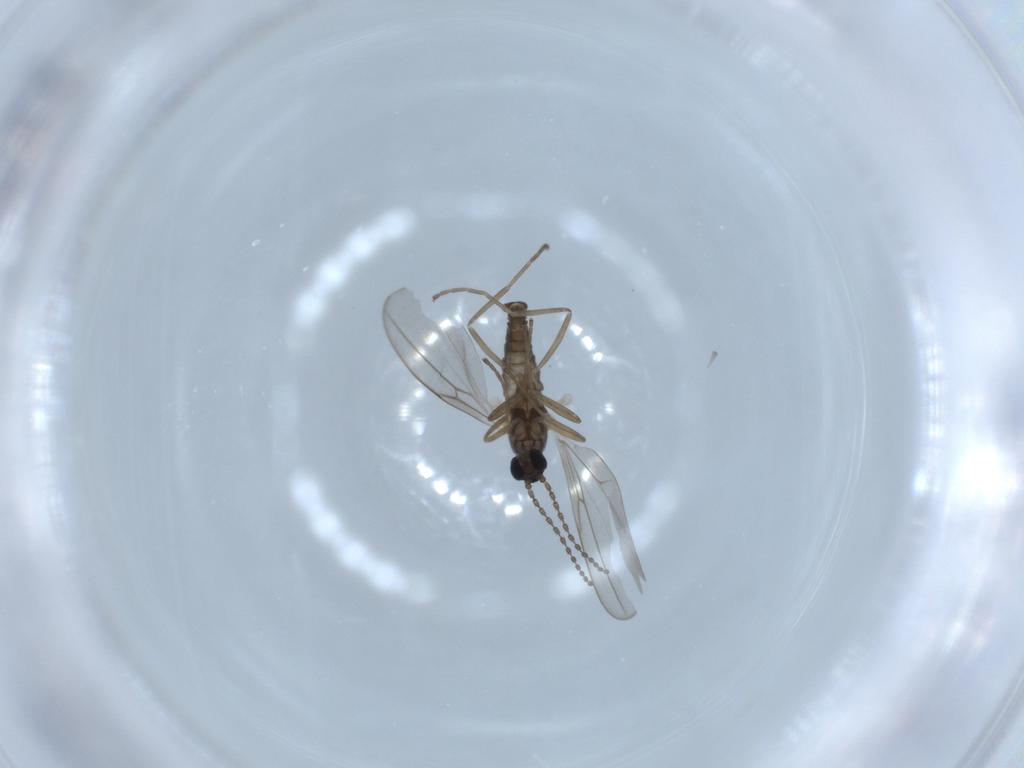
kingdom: Animalia
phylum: Arthropoda
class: Insecta
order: Diptera
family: Cecidomyiidae
